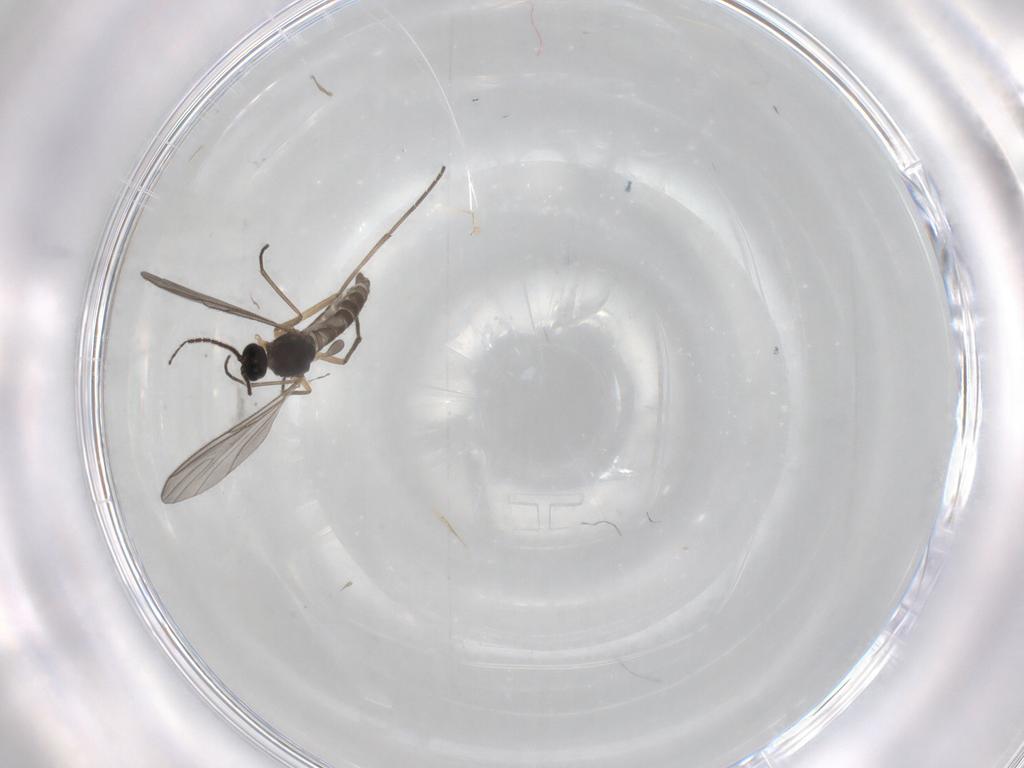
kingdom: Animalia
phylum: Arthropoda
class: Insecta
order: Diptera
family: Sciaridae
